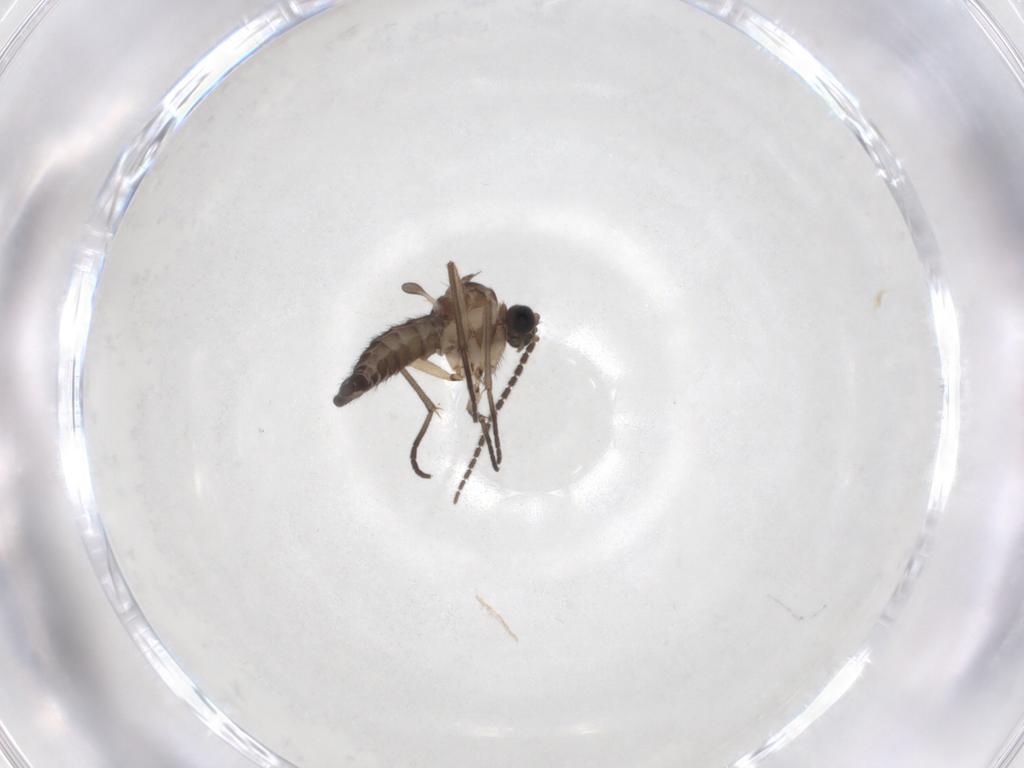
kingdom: Animalia
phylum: Arthropoda
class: Insecta
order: Diptera
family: Sciaridae
